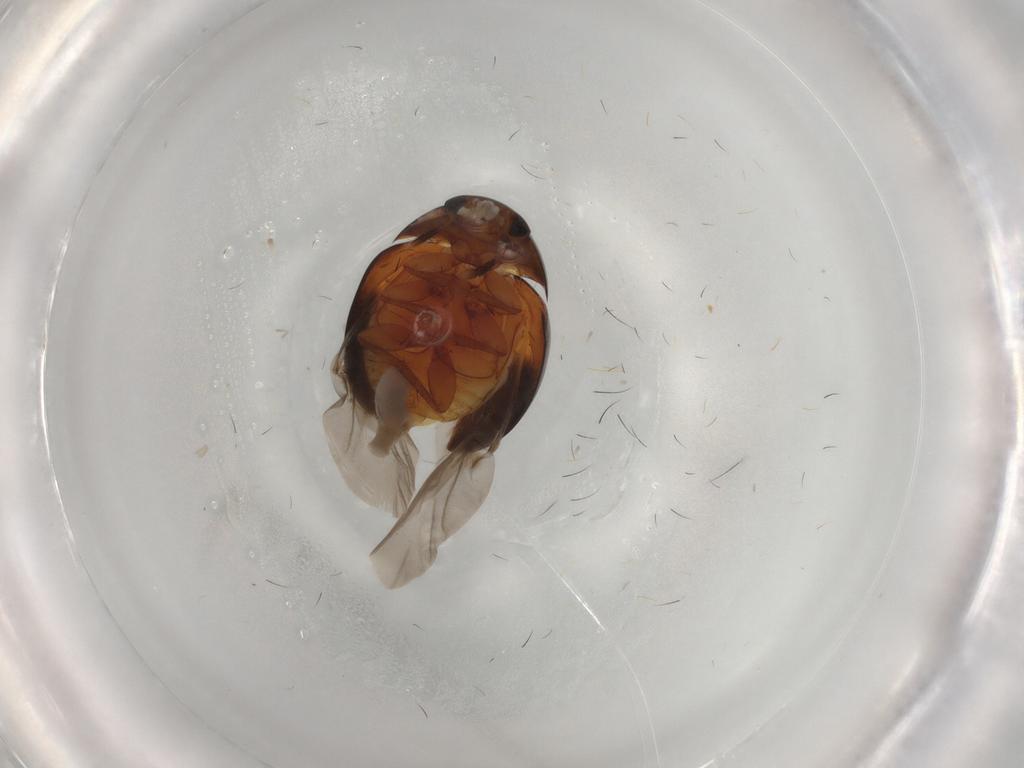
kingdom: Animalia
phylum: Arthropoda
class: Insecta
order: Coleoptera
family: Phalacridae
